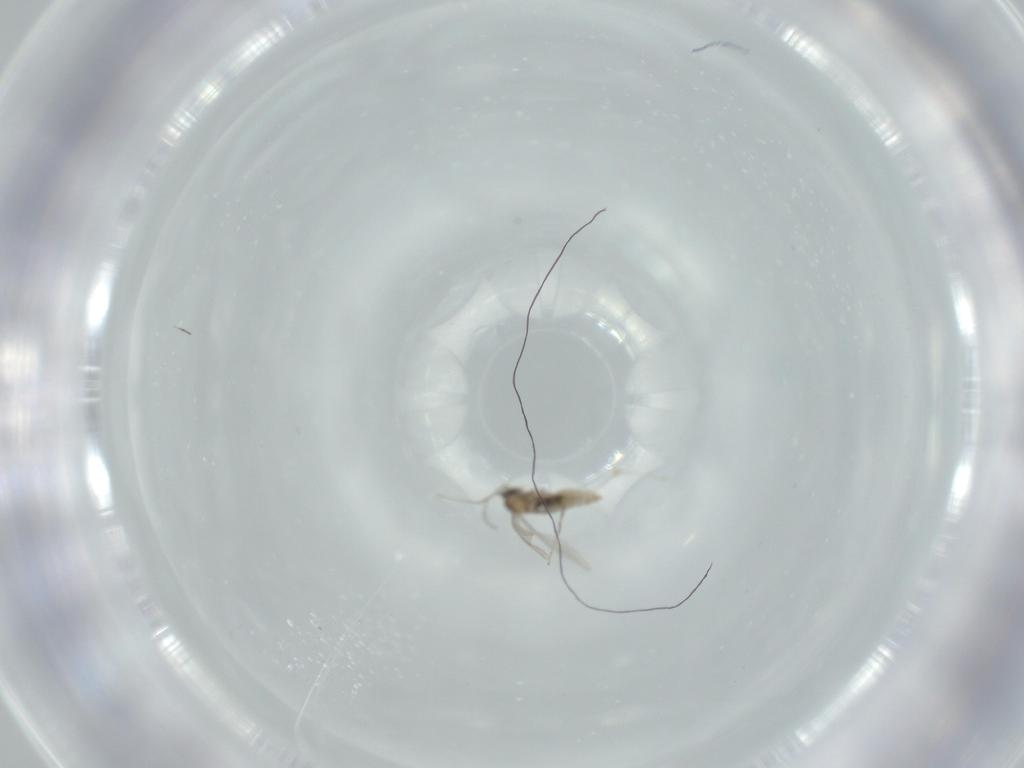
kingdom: Animalia
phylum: Arthropoda
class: Insecta
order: Diptera
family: Cecidomyiidae
